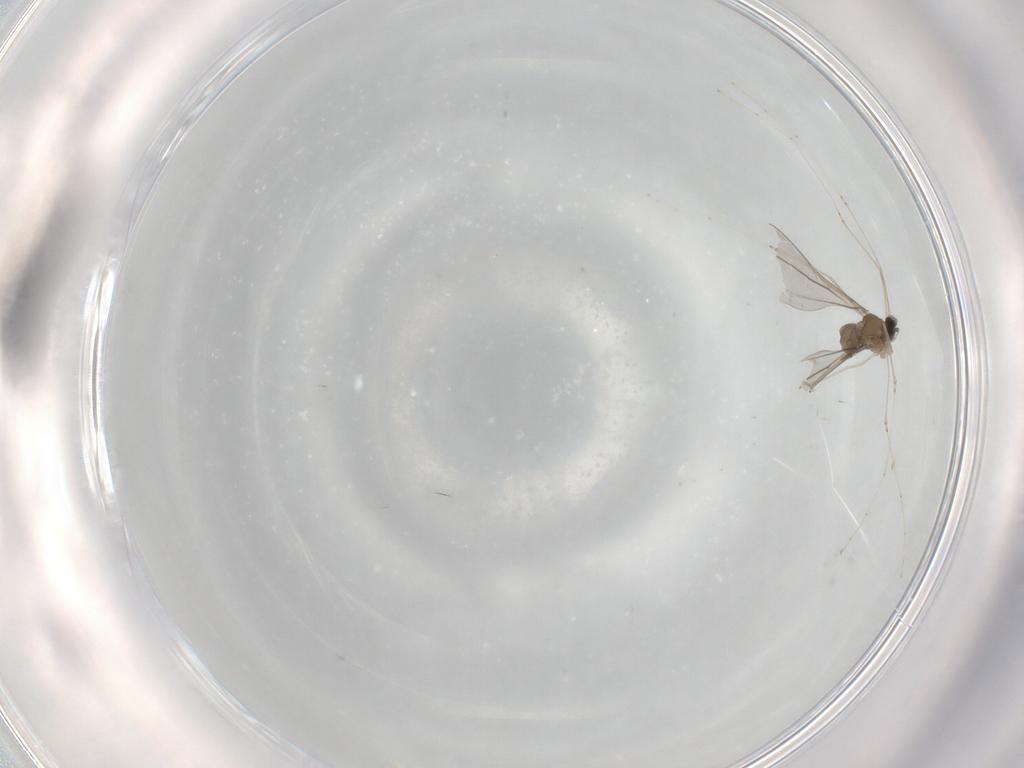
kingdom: Animalia
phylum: Arthropoda
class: Insecta
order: Diptera
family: Cecidomyiidae
